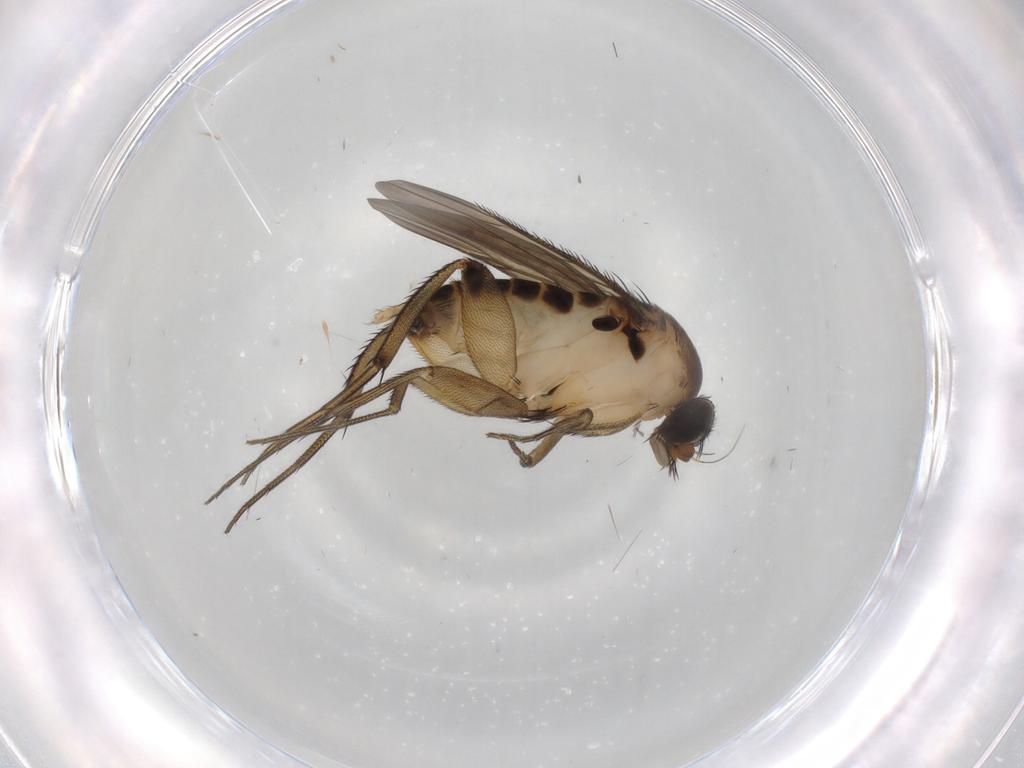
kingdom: Animalia
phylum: Arthropoda
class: Insecta
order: Diptera
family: Phoridae
